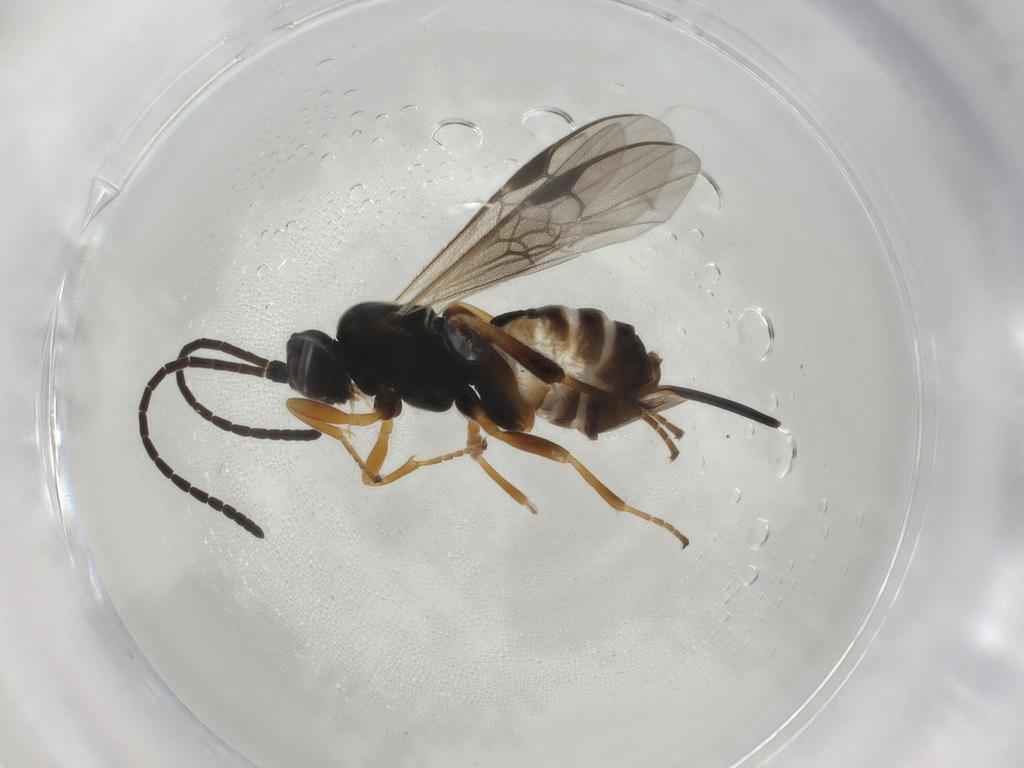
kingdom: Animalia
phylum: Arthropoda
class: Insecta
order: Hymenoptera
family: Braconidae
